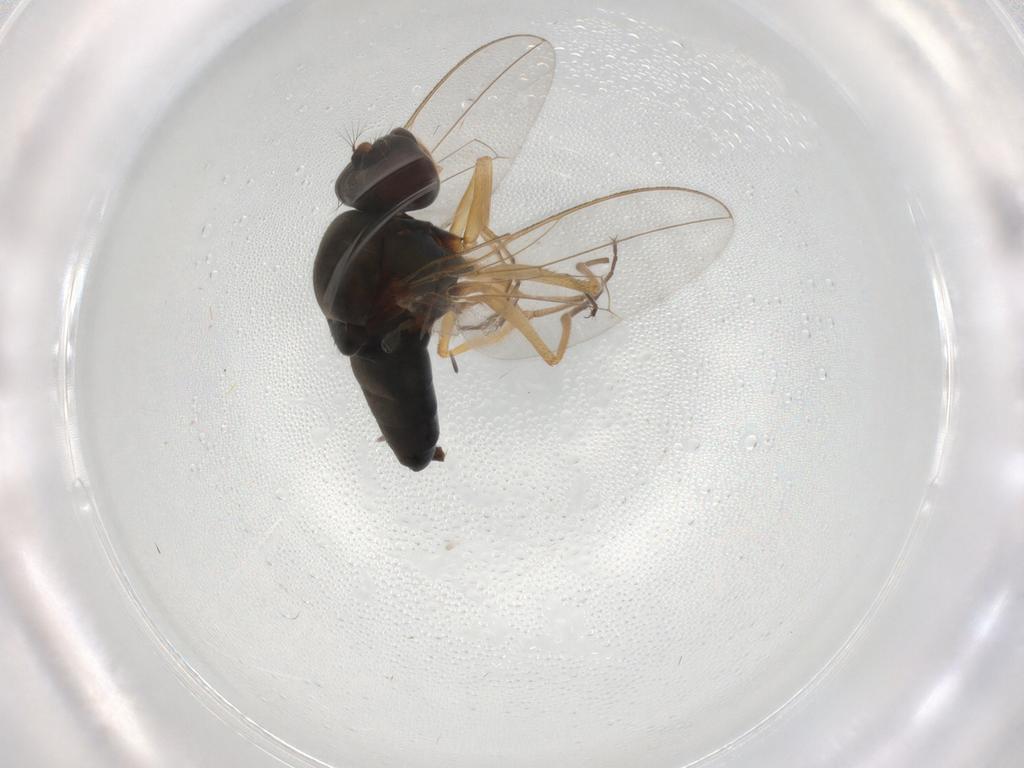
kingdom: Animalia
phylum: Arthropoda
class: Insecta
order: Diptera
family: Ephydridae
